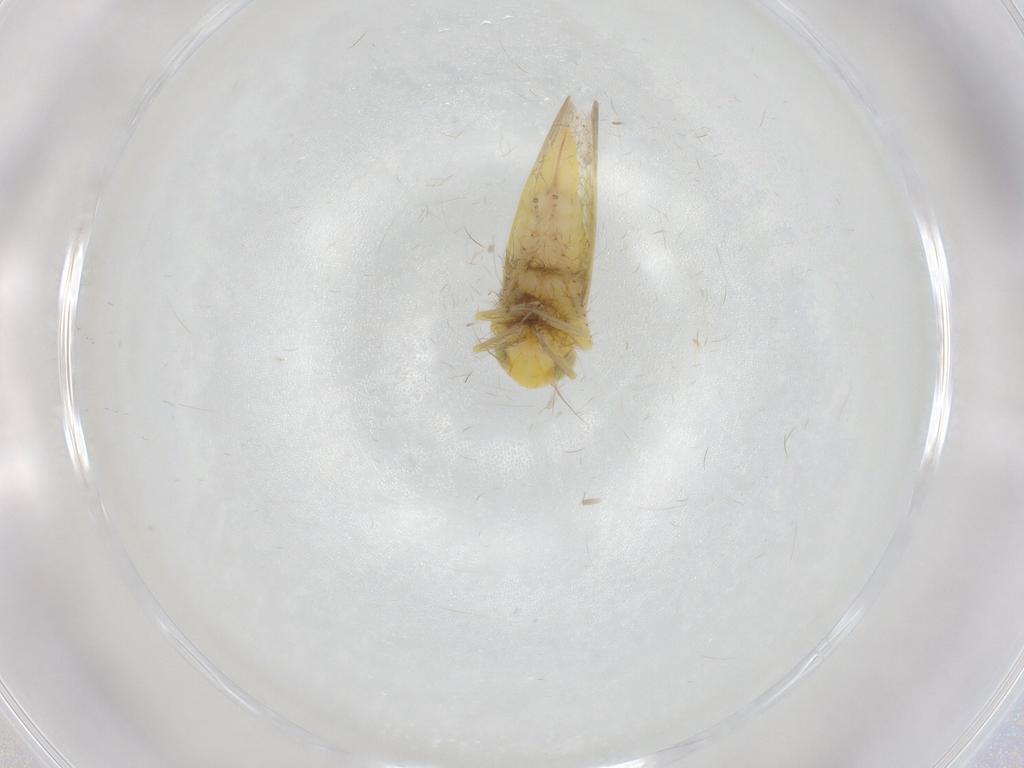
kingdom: Animalia
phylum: Arthropoda
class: Insecta
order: Hemiptera
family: Cicadellidae
